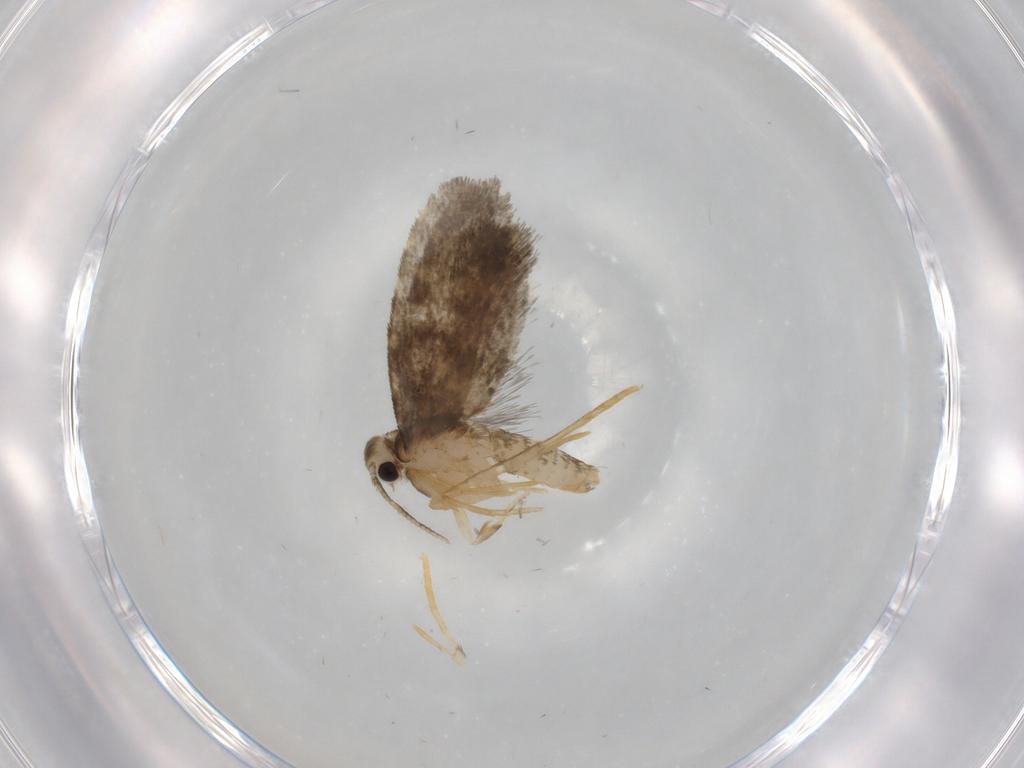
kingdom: Animalia
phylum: Arthropoda
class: Insecta
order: Lepidoptera
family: Psychidae
